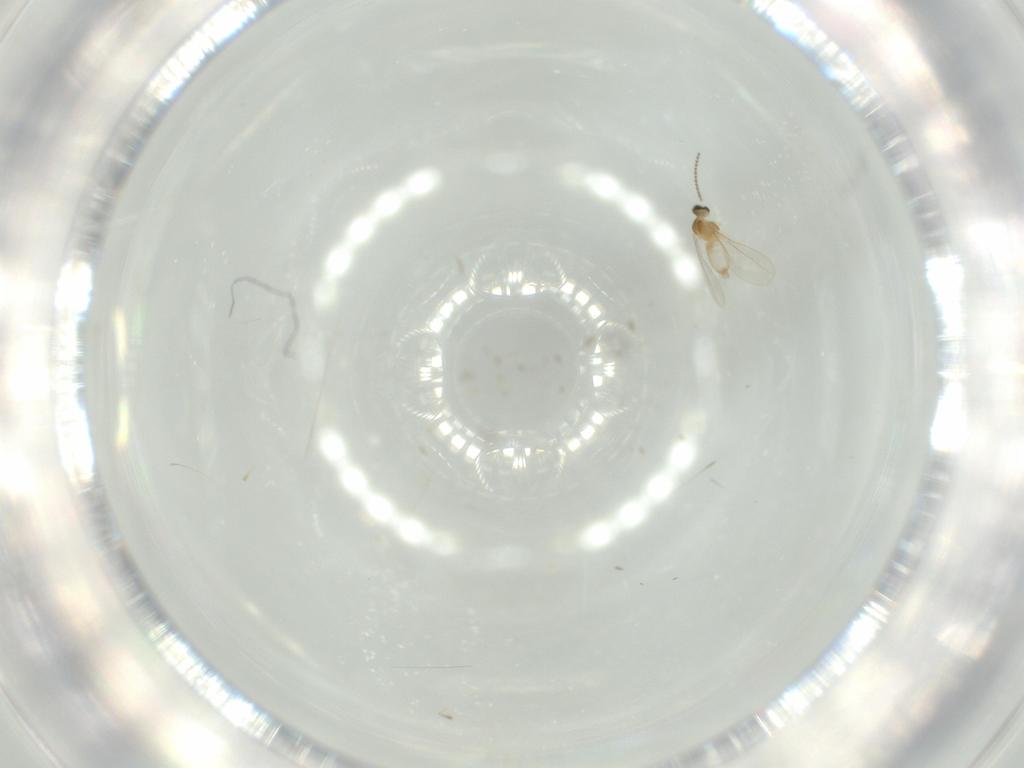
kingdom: Animalia
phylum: Arthropoda
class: Insecta
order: Diptera
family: Cecidomyiidae
